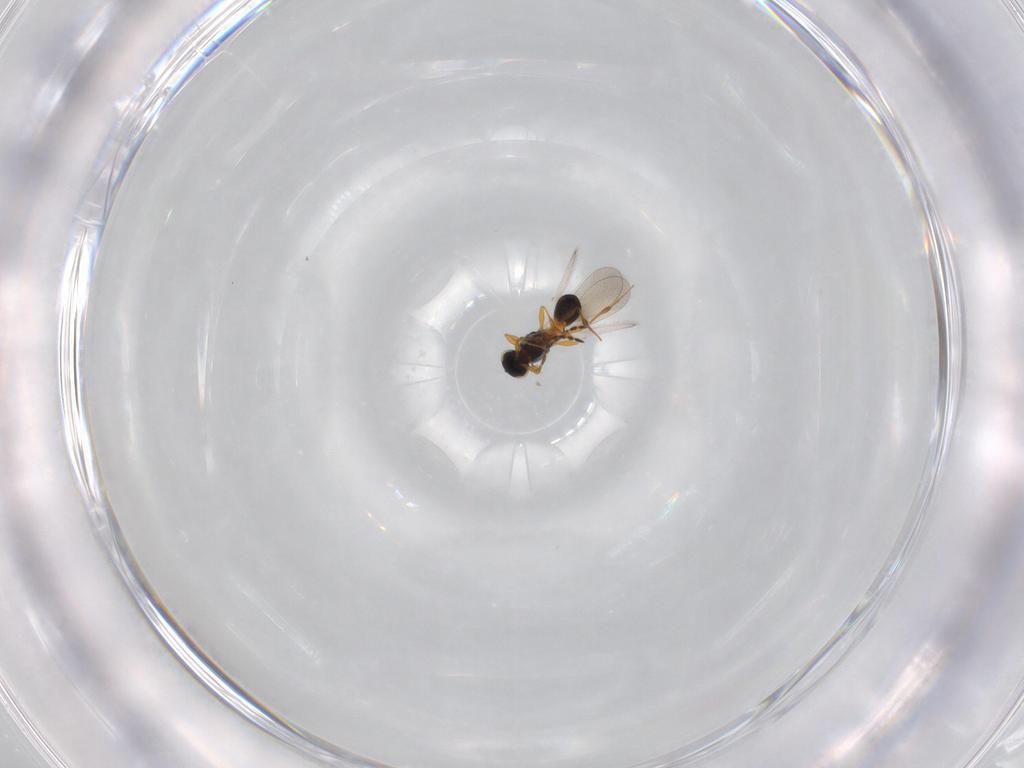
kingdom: Animalia
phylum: Arthropoda
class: Insecta
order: Hymenoptera
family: Platygastridae
